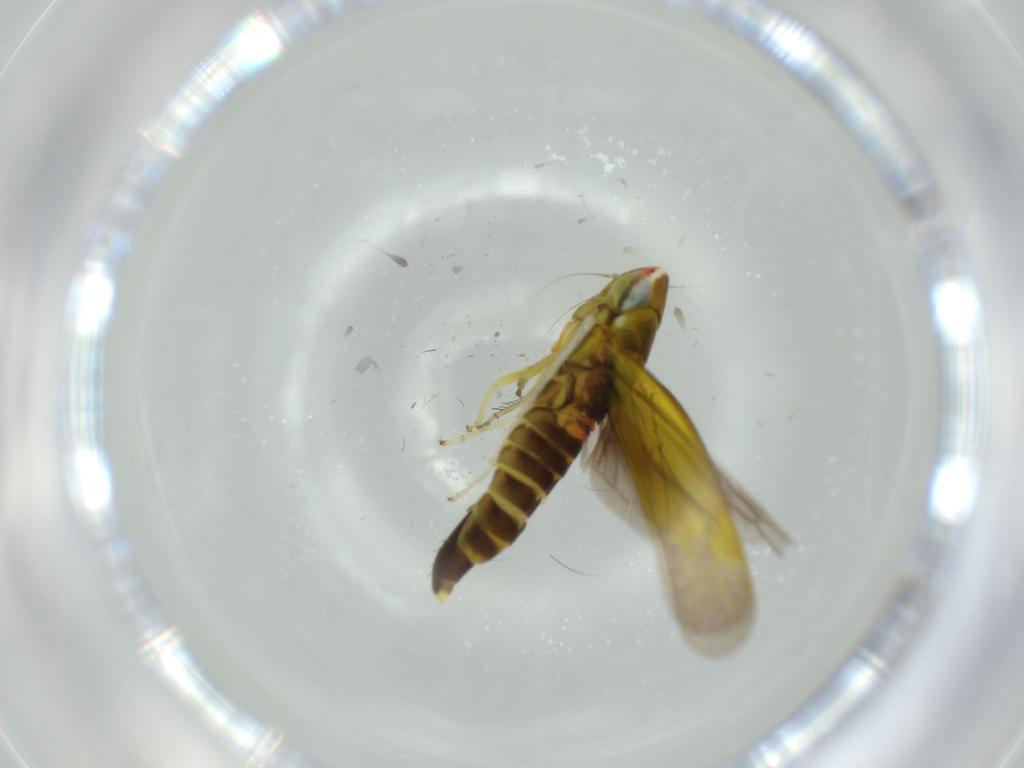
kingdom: Animalia
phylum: Arthropoda
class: Insecta
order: Hemiptera
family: Cicadellidae
